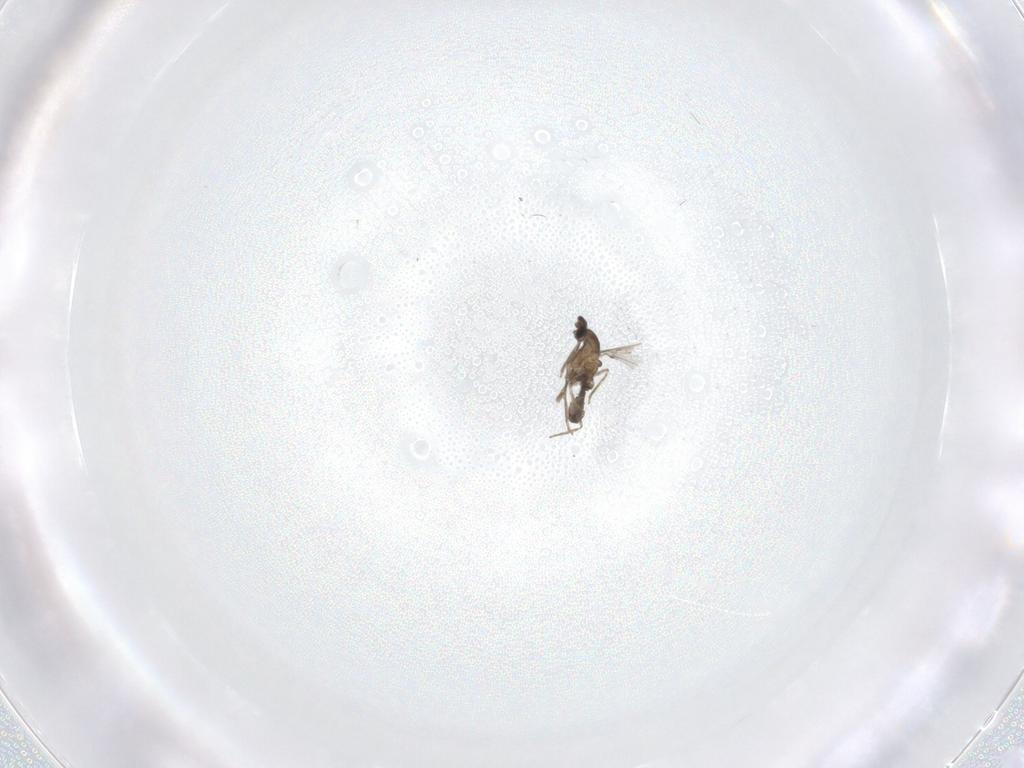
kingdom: Animalia
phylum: Arthropoda
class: Insecta
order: Diptera
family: Cecidomyiidae
